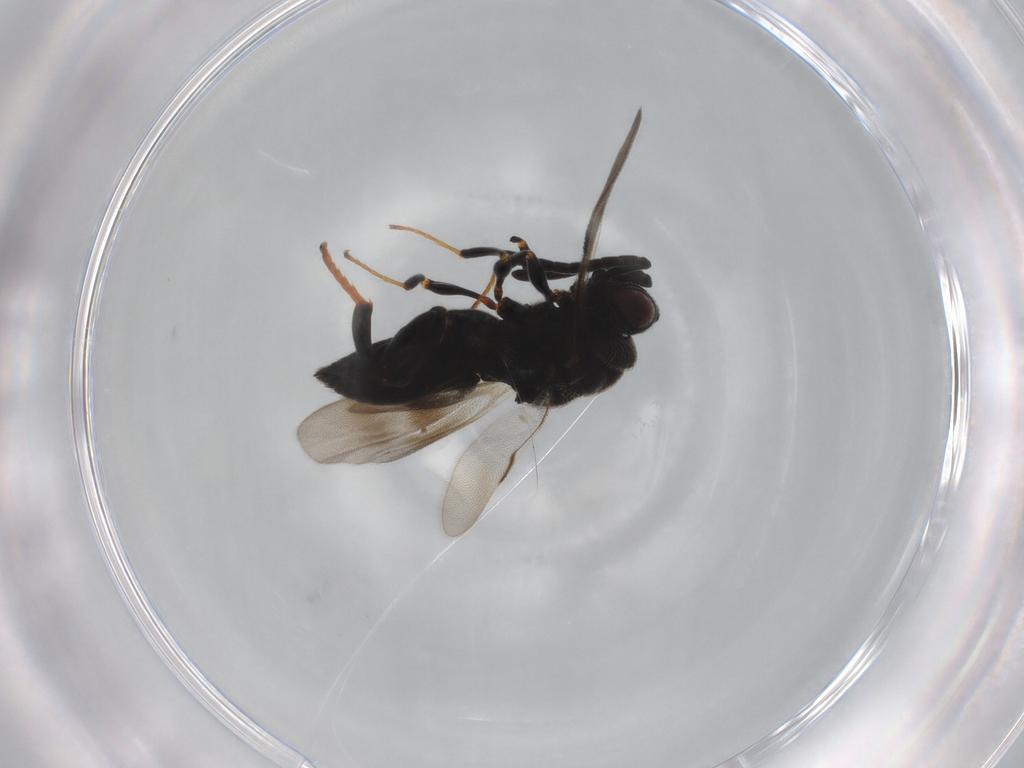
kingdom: Animalia
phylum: Arthropoda
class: Insecta
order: Hymenoptera
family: Chalcididae
